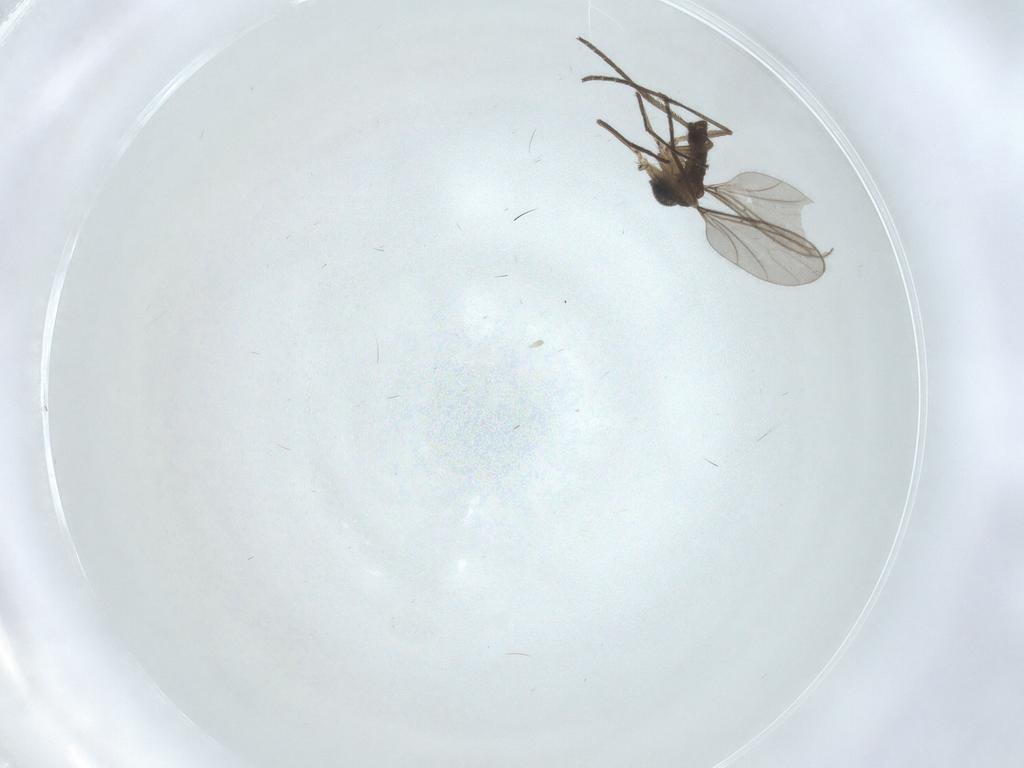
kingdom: Animalia
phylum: Arthropoda
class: Insecta
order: Diptera
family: Sciaridae
